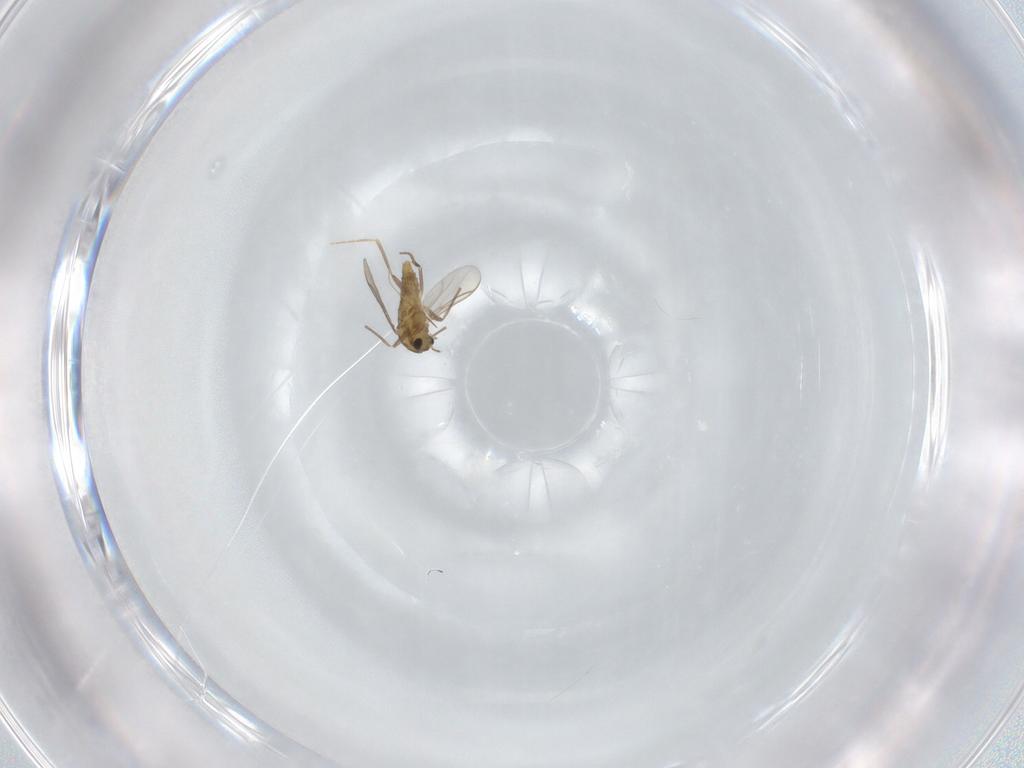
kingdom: Animalia
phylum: Arthropoda
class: Insecta
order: Diptera
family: Chironomidae
